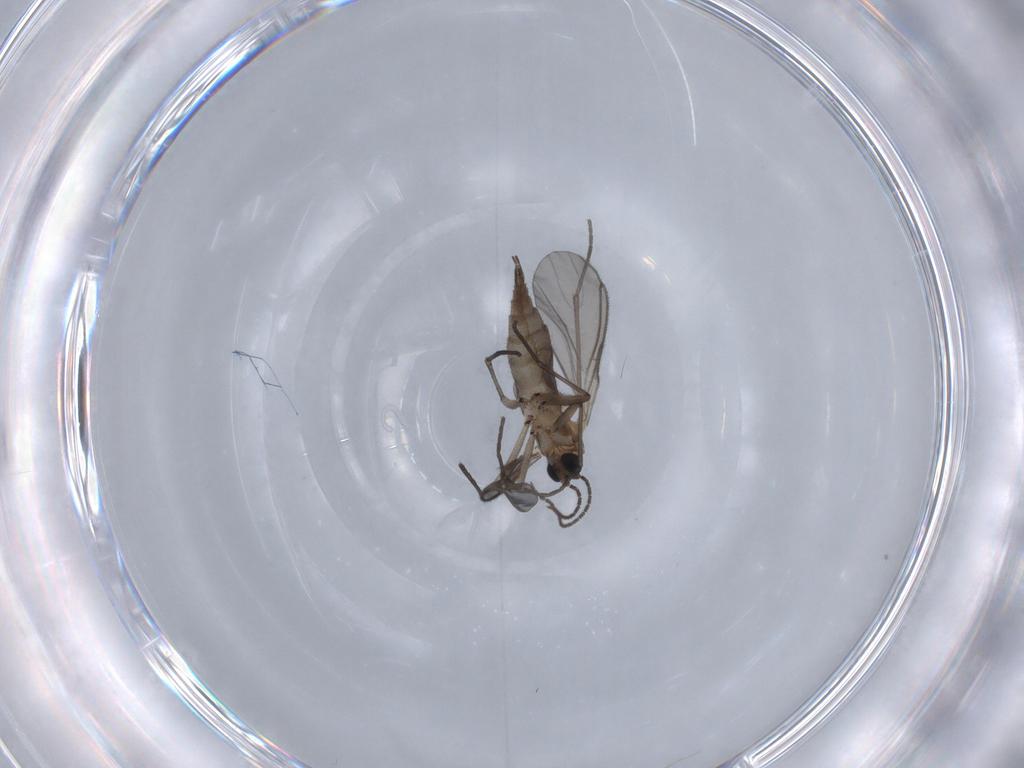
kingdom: Animalia
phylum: Arthropoda
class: Insecta
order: Diptera
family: Sciaridae
